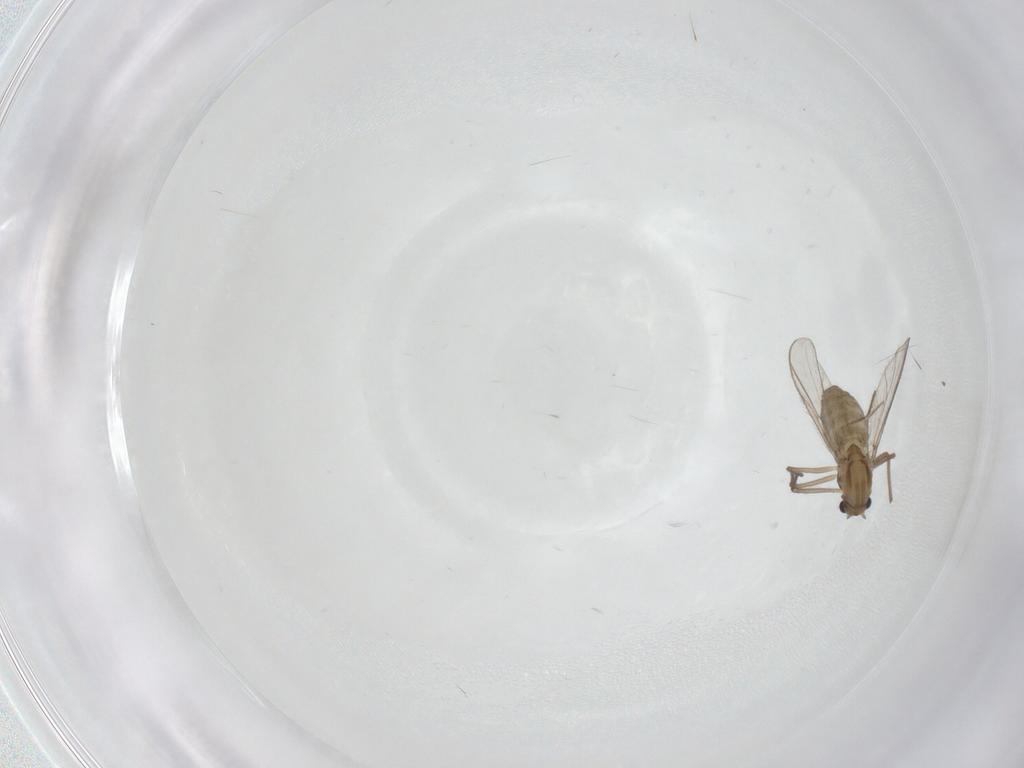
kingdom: Animalia
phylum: Arthropoda
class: Insecta
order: Diptera
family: Chironomidae
